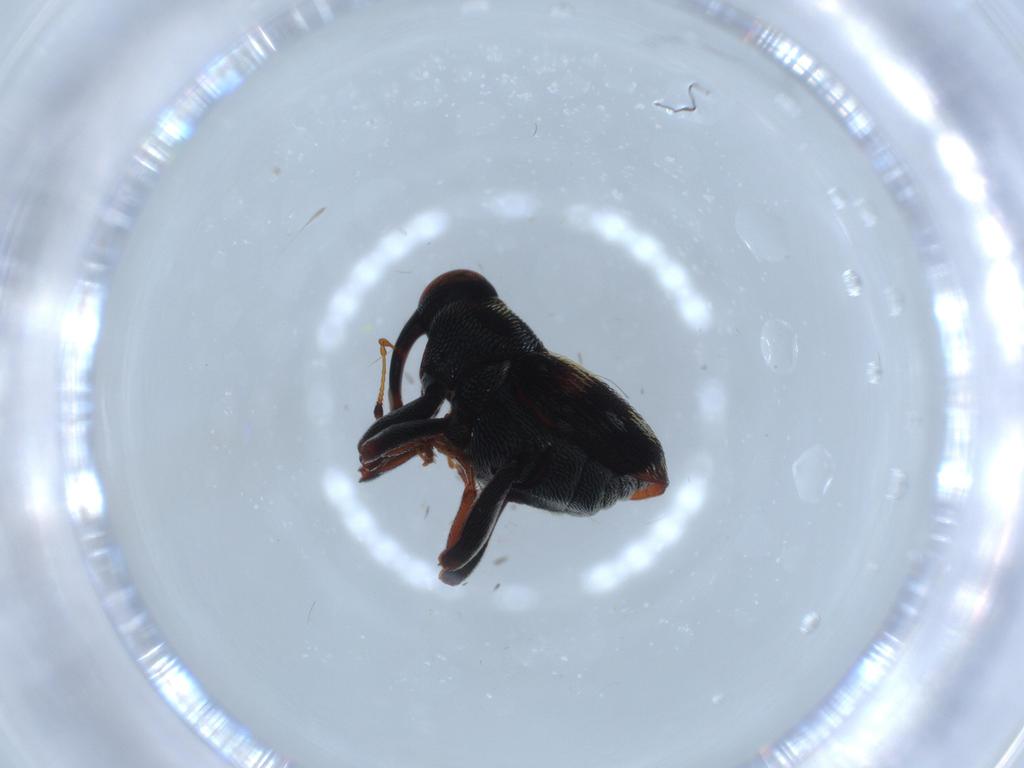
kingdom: Animalia
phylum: Arthropoda
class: Insecta
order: Coleoptera
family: Curculionidae
